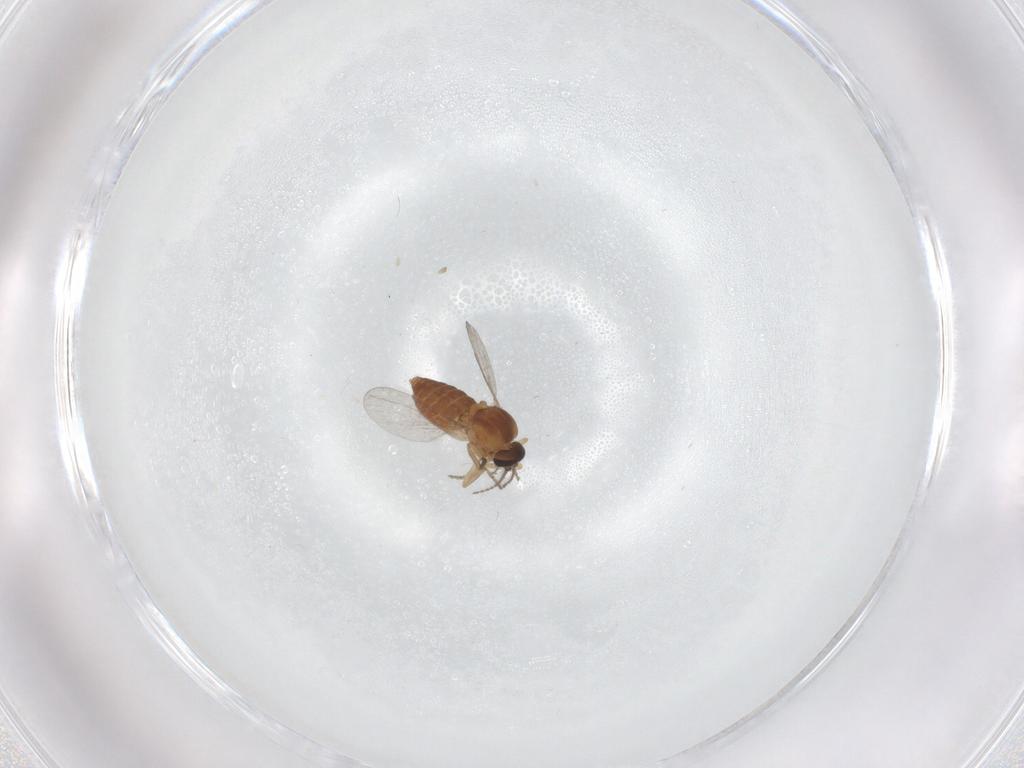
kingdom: Animalia
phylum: Arthropoda
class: Insecta
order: Diptera
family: Ceratopogonidae
